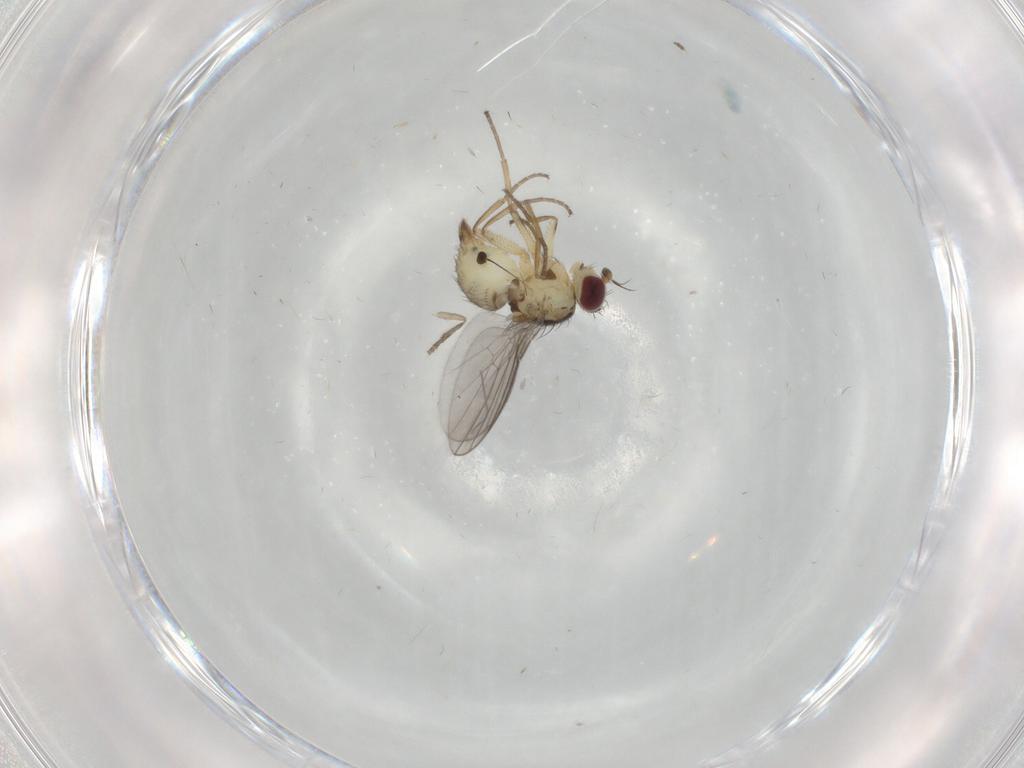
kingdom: Animalia
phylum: Arthropoda
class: Insecta
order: Diptera
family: Agromyzidae
